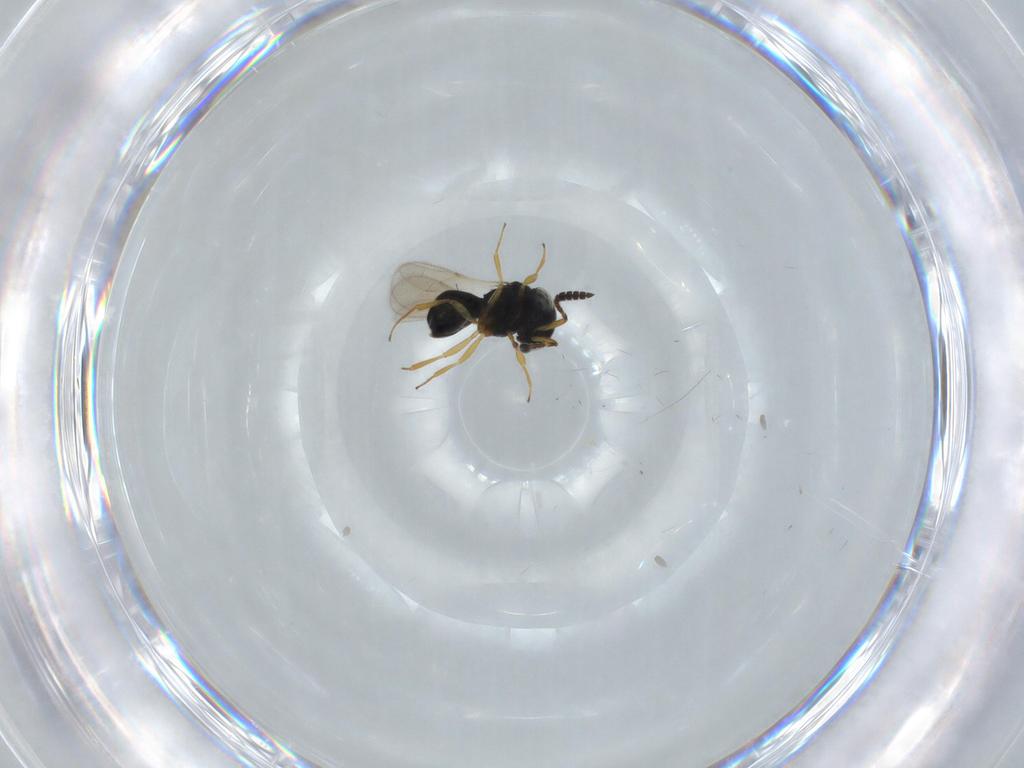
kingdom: Animalia
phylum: Arthropoda
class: Insecta
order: Hymenoptera
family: Scelionidae
